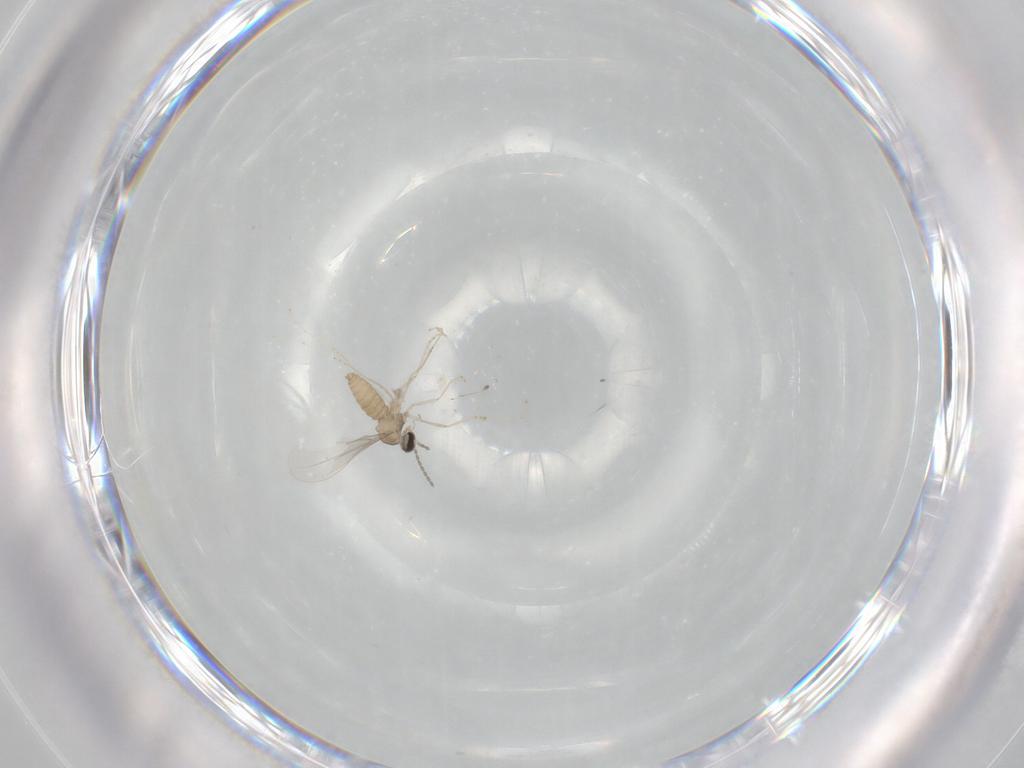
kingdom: Animalia
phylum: Arthropoda
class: Insecta
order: Diptera
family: Cecidomyiidae
